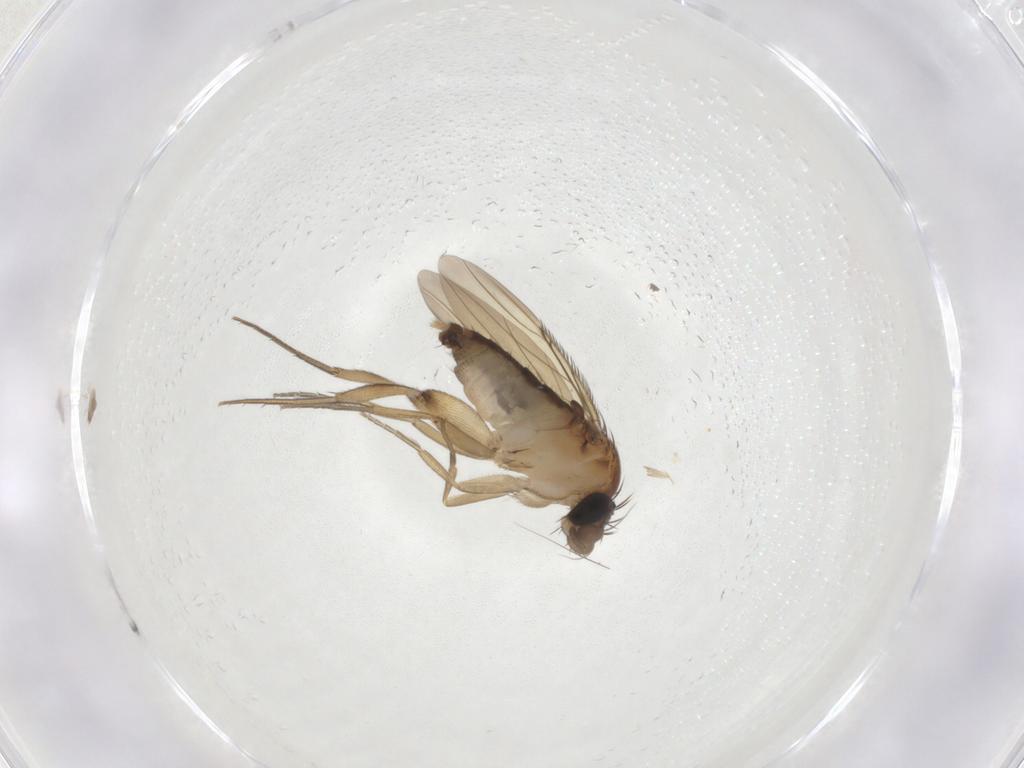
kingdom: Animalia
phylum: Arthropoda
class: Insecta
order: Diptera
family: Phoridae
